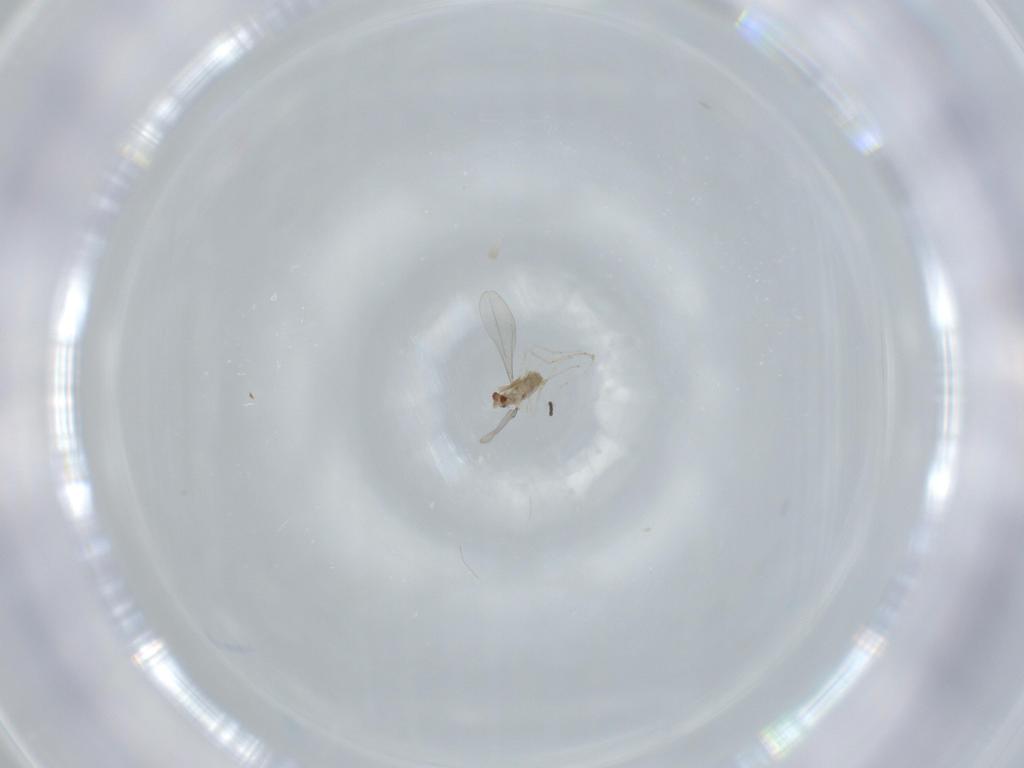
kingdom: Animalia
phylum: Arthropoda
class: Insecta
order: Diptera
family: Cecidomyiidae
